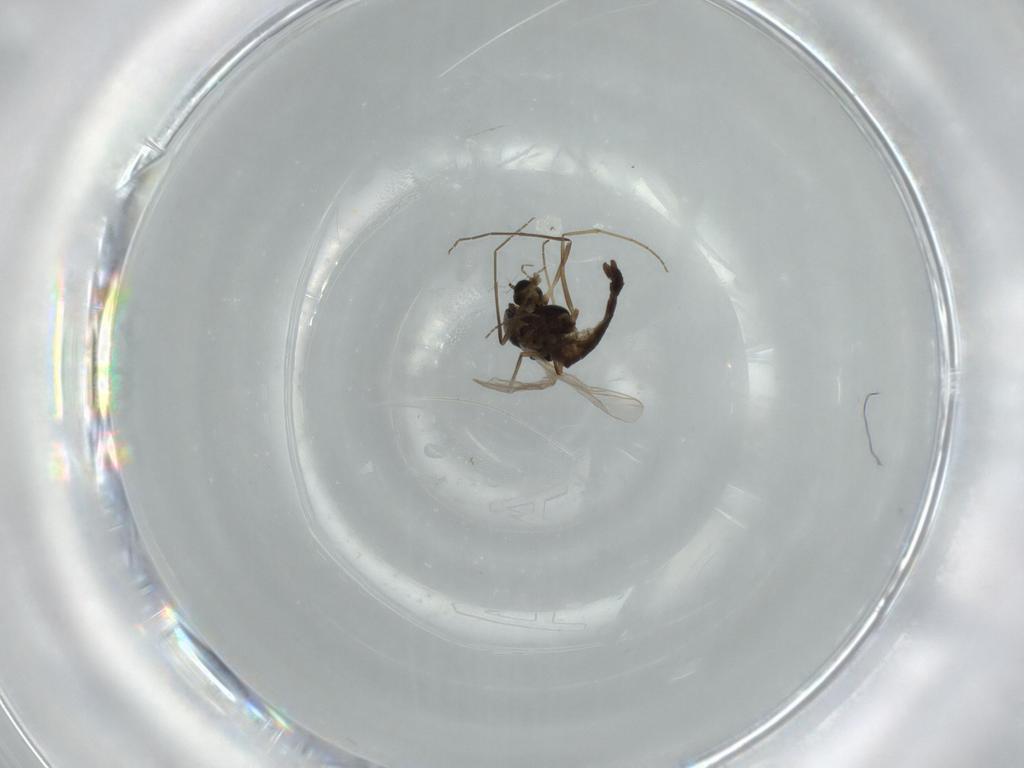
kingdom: Animalia
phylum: Arthropoda
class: Insecta
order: Diptera
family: Chironomidae
